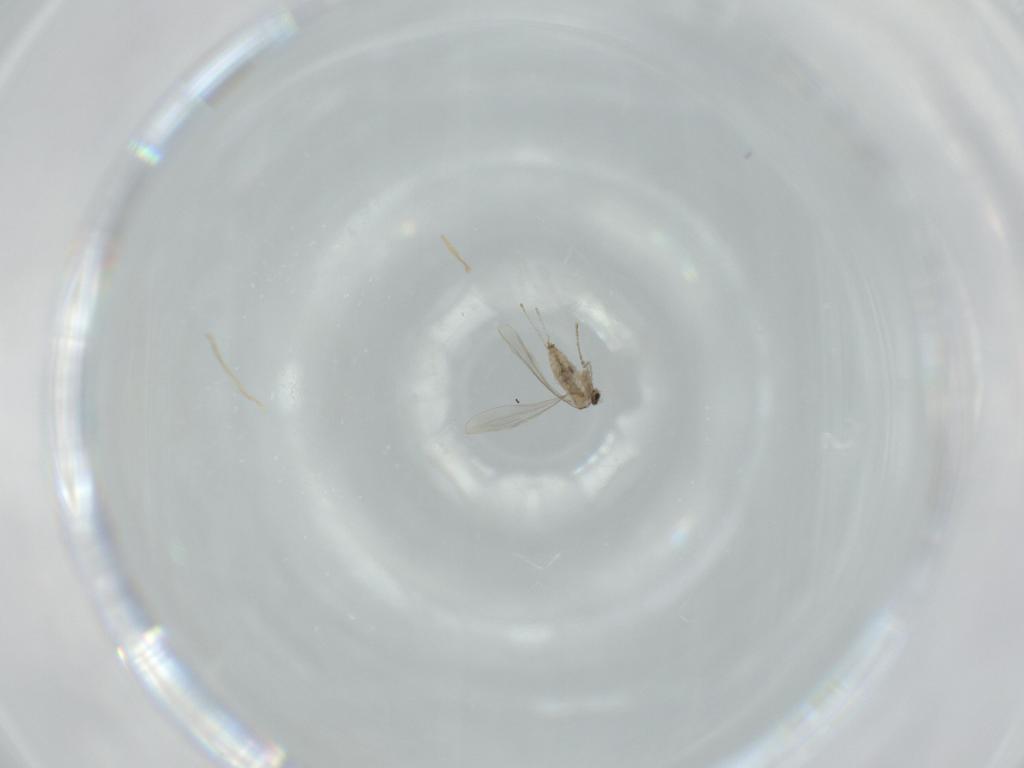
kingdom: Animalia
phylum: Arthropoda
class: Insecta
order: Diptera
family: Cecidomyiidae
